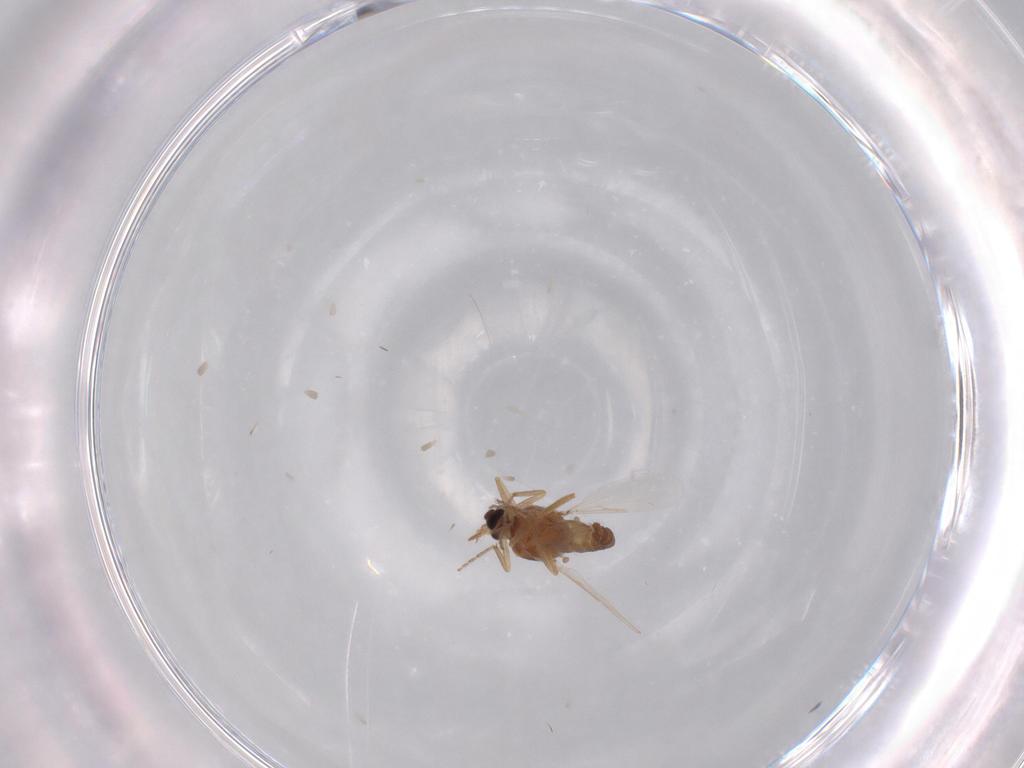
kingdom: Animalia
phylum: Arthropoda
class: Insecta
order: Diptera
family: Ceratopogonidae
